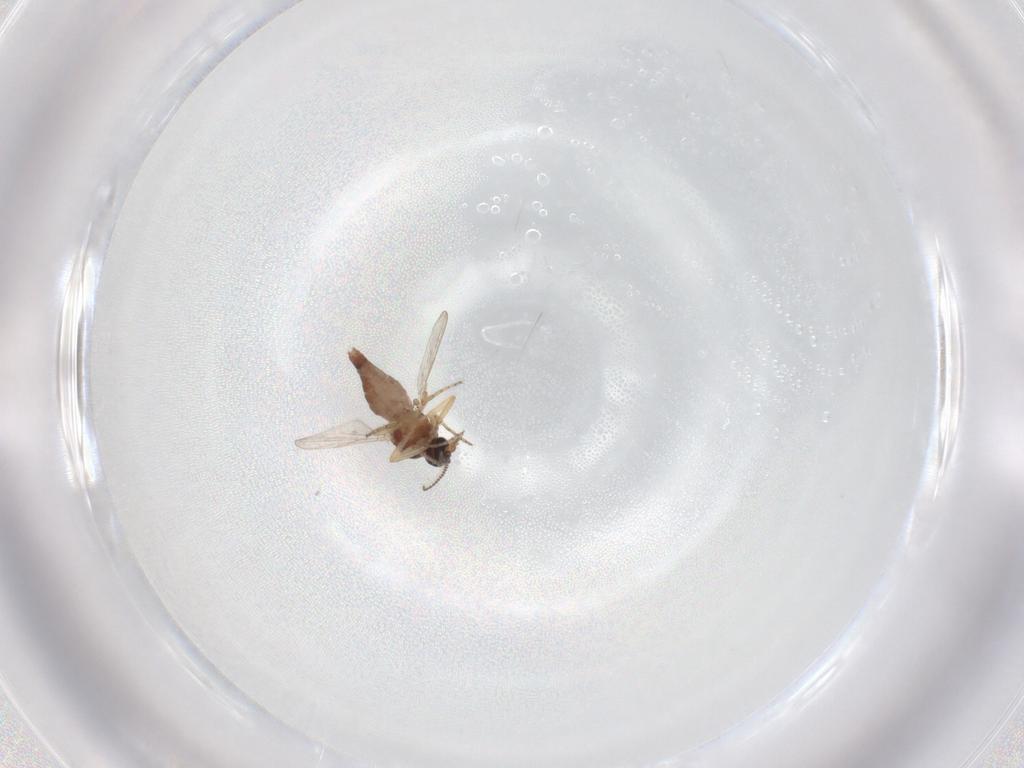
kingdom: Animalia
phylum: Arthropoda
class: Insecta
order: Diptera
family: Ceratopogonidae
